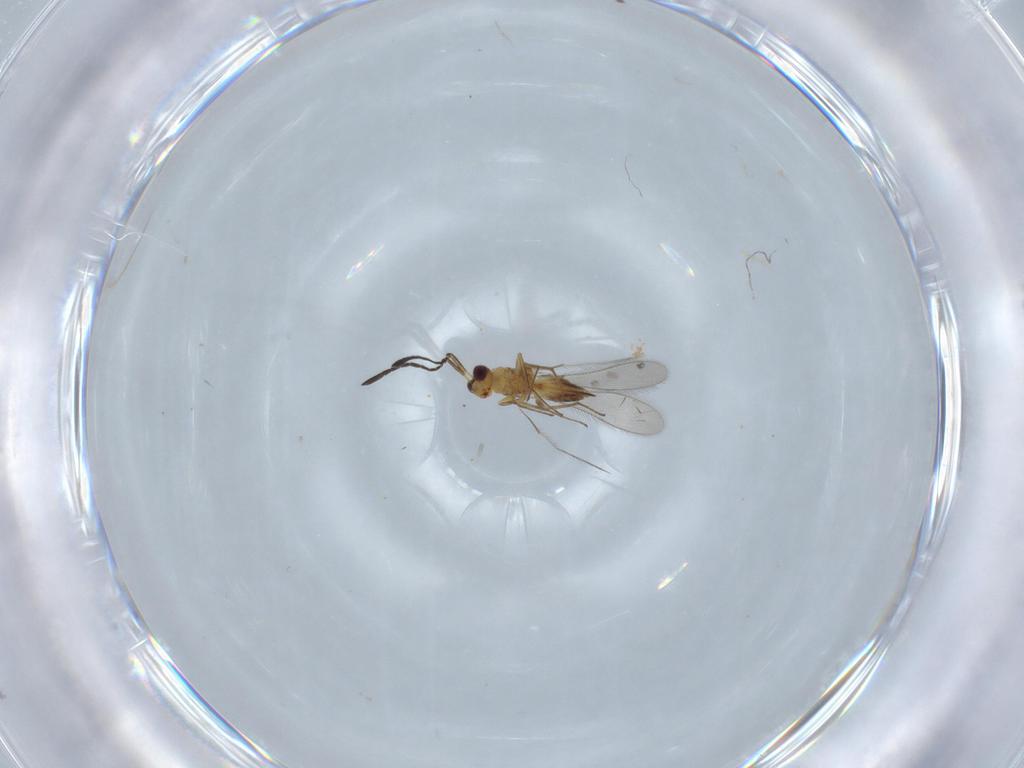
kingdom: Animalia
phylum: Arthropoda
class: Insecta
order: Hymenoptera
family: Mymaridae
